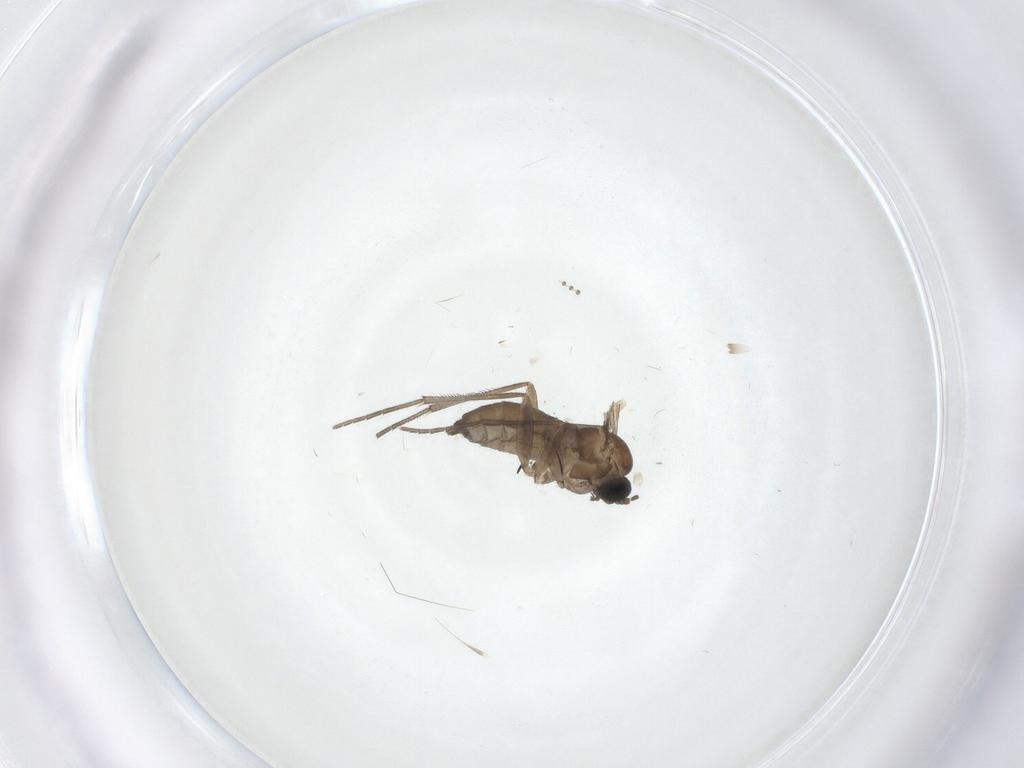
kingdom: Animalia
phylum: Arthropoda
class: Insecta
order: Diptera
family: Sciaridae
